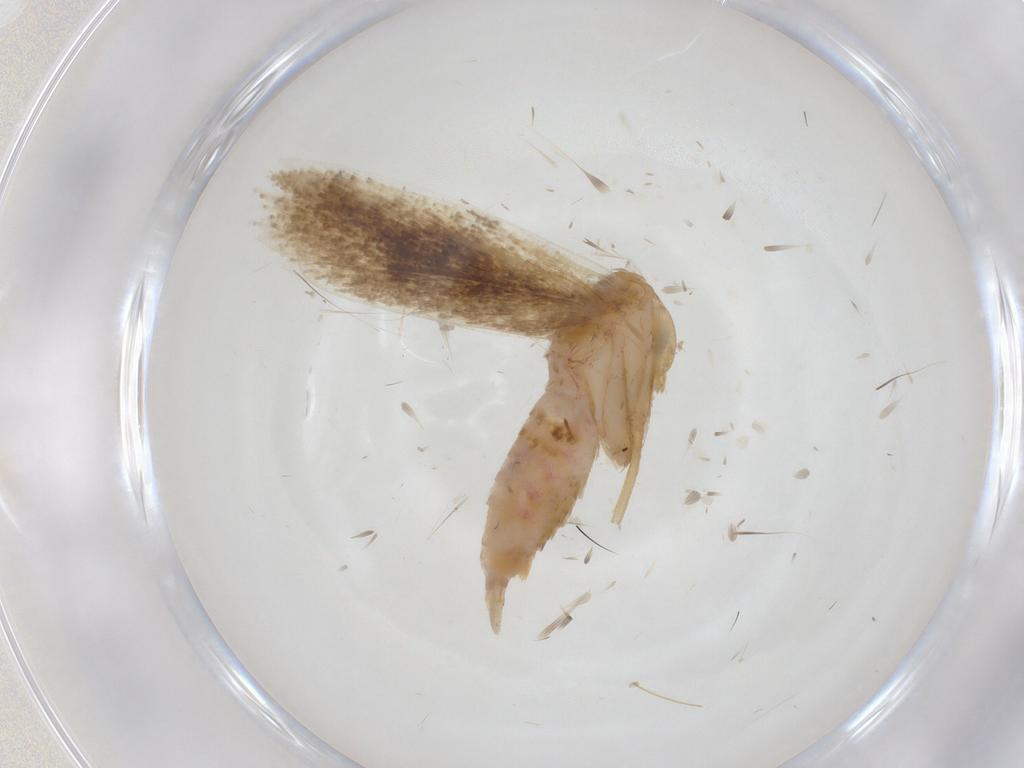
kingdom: Animalia
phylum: Arthropoda
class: Insecta
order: Lepidoptera
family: Gelechiidae
